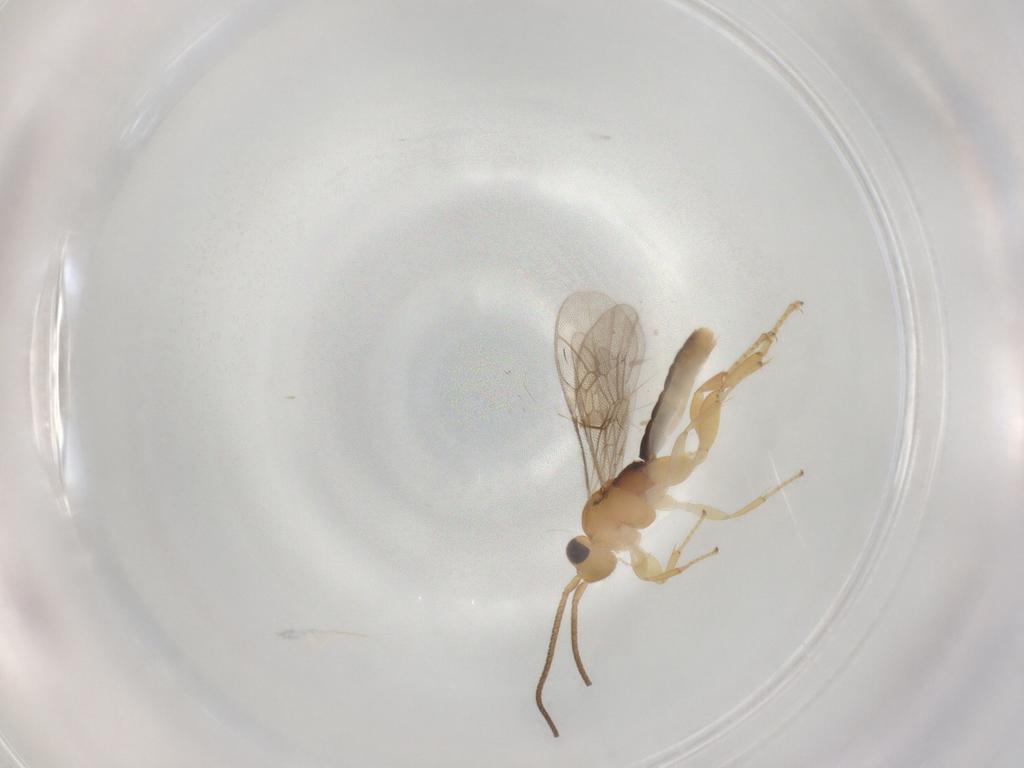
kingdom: Animalia
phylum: Arthropoda
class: Insecta
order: Hymenoptera
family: Ichneumonidae
